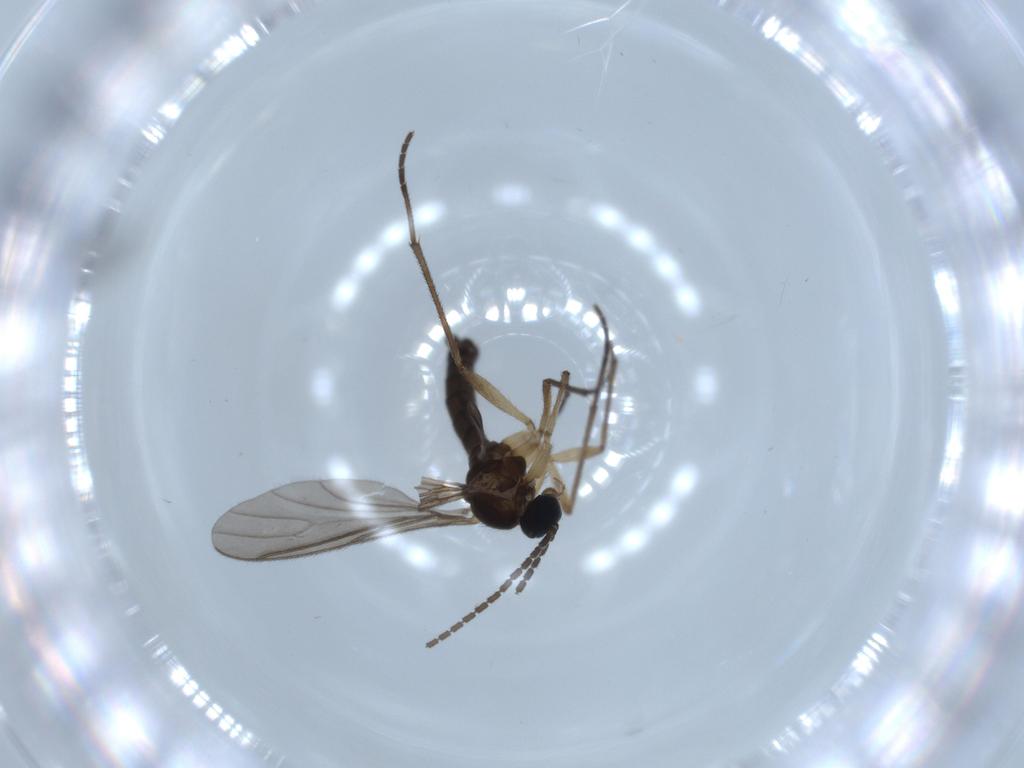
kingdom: Animalia
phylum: Arthropoda
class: Insecta
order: Diptera
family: Sciaridae
